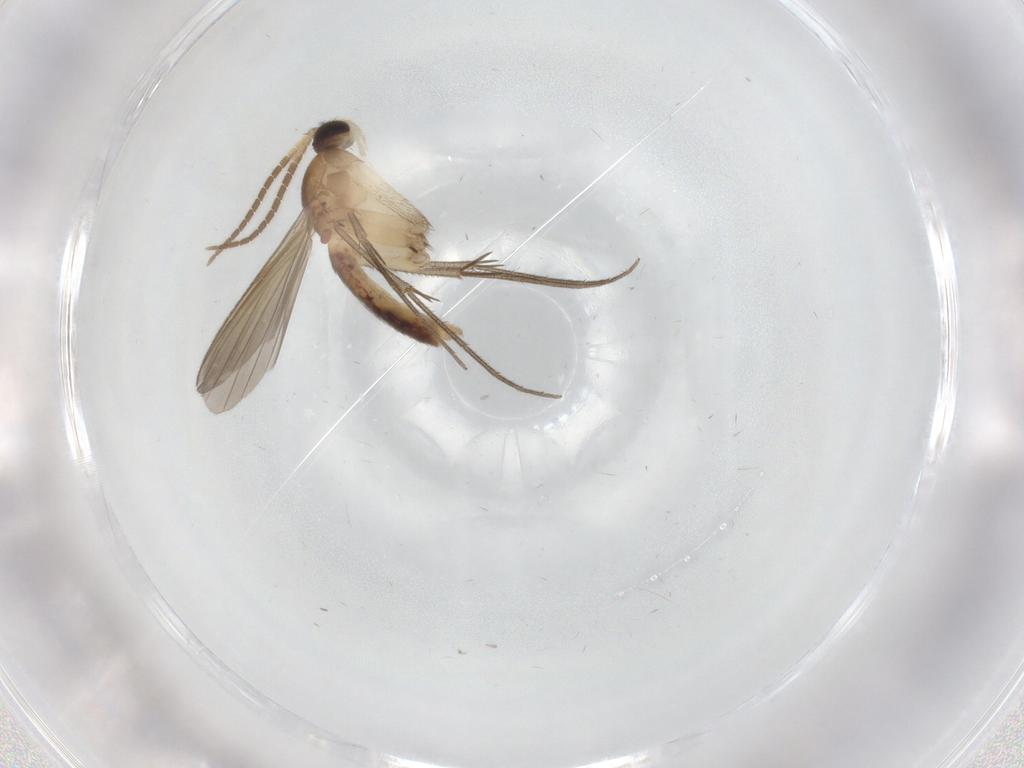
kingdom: Animalia
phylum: Arthropoda
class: Insecta
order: Diptera
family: Mycetophilidae
